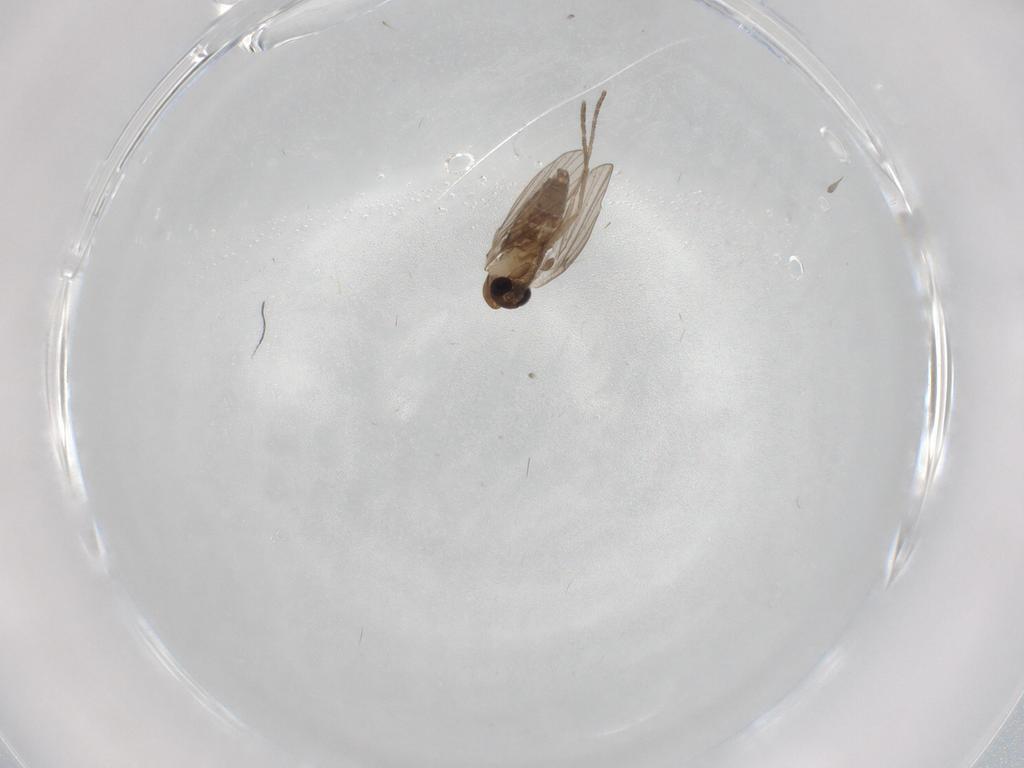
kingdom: Animalia
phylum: Arthropoda
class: Insecta
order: Diptera
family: Psychodidae
